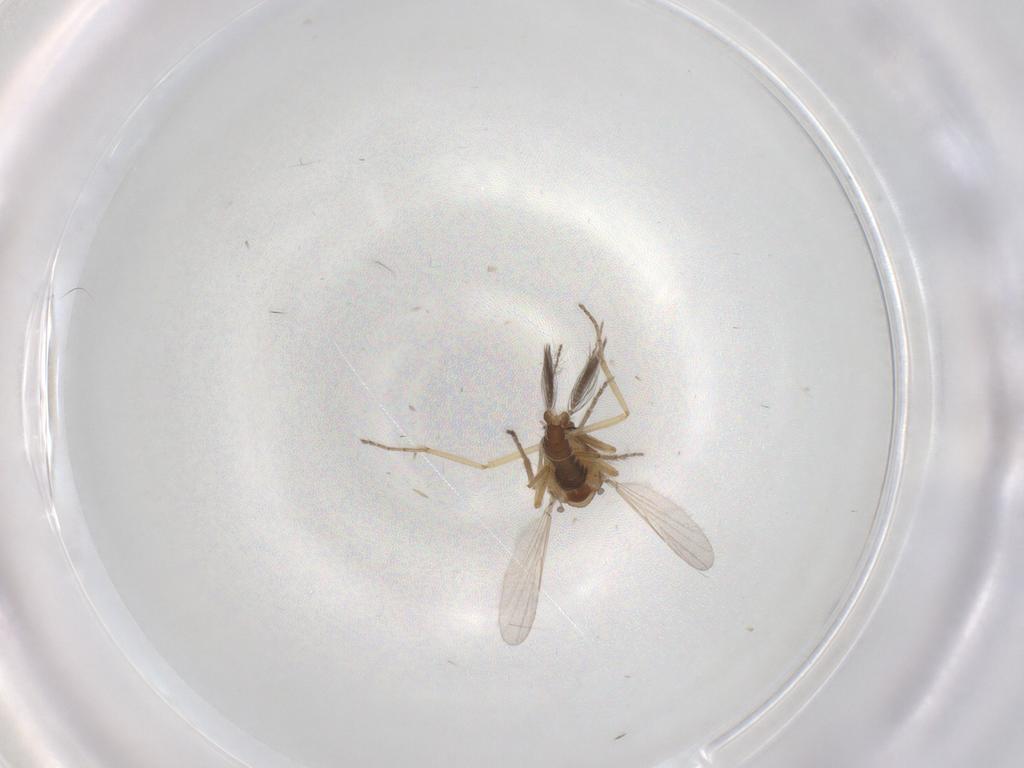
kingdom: Animalia
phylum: Arthropoda
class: Insecta
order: Diptera
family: Ceratopogonidae
